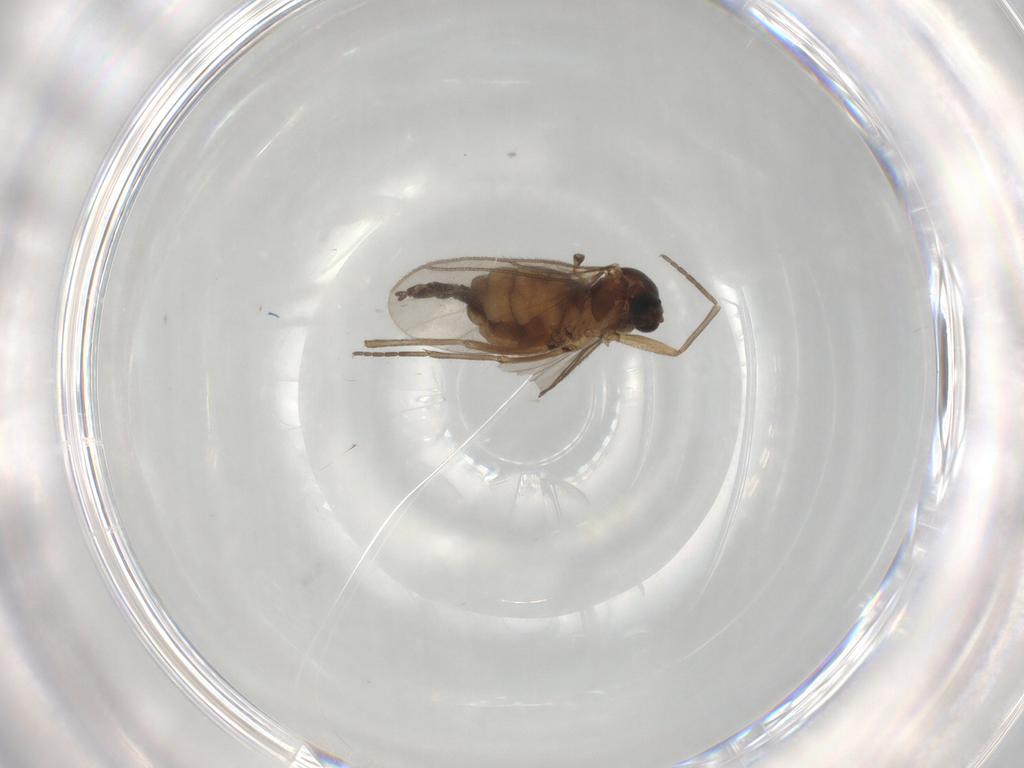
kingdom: Animalia
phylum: Arthropoda
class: Insecta
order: Diptera
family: Sciaridae
